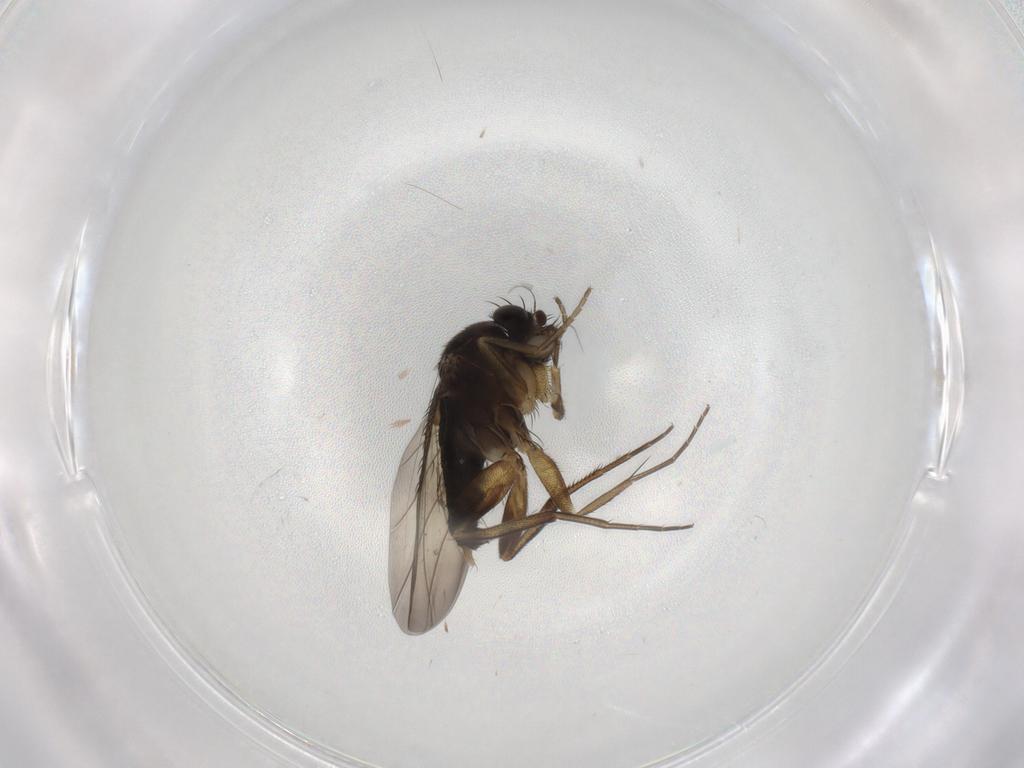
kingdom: Animalia
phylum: Arthropoda
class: Insecta
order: Diptera
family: Phoridae
